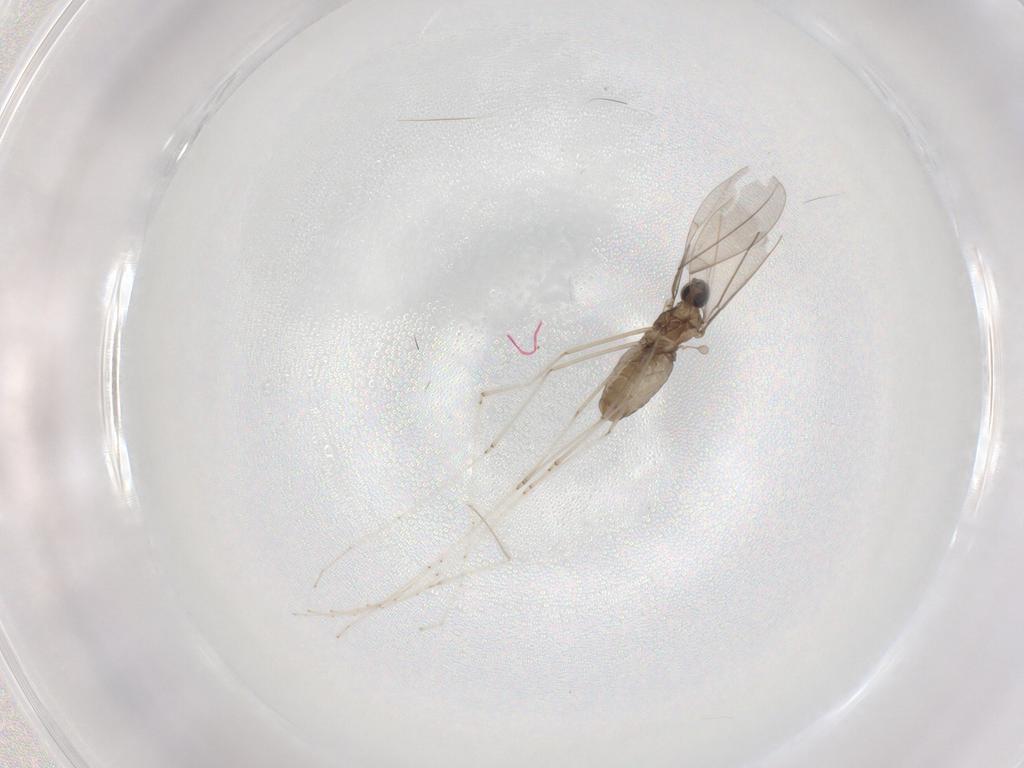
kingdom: Animalia
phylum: Arthropoda
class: Insecta
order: Diptera
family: Cecidomyiidae
